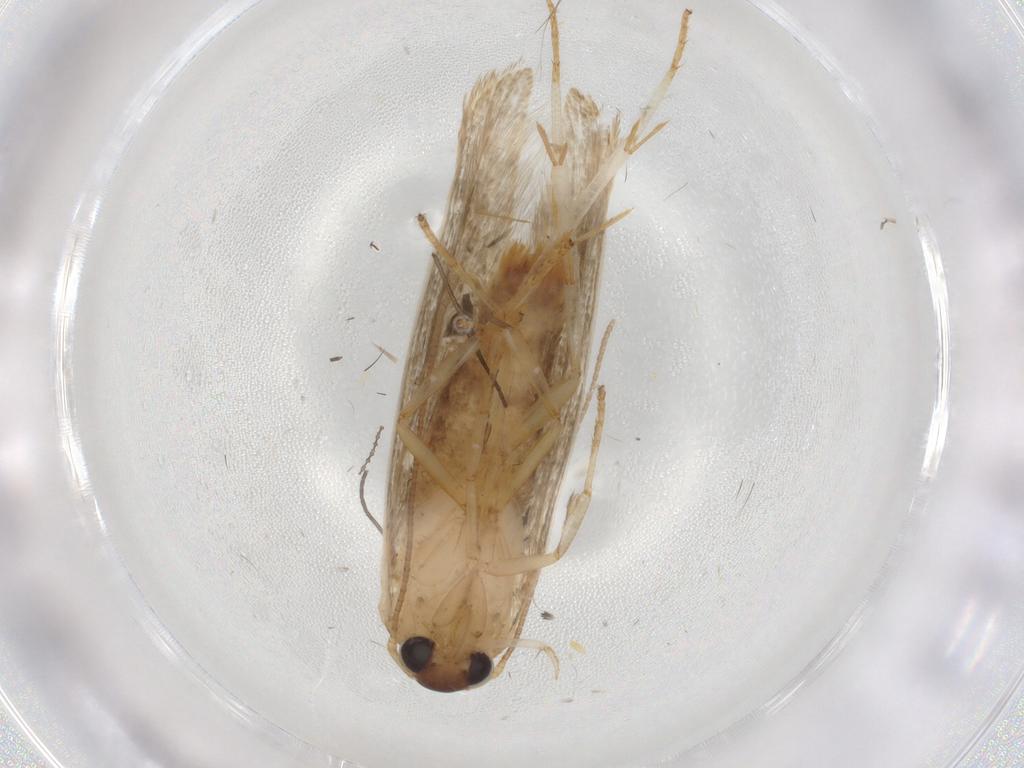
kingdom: Animalia
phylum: Arthropoda
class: Insecta
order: Lepidoptera
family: Blastobasidae
